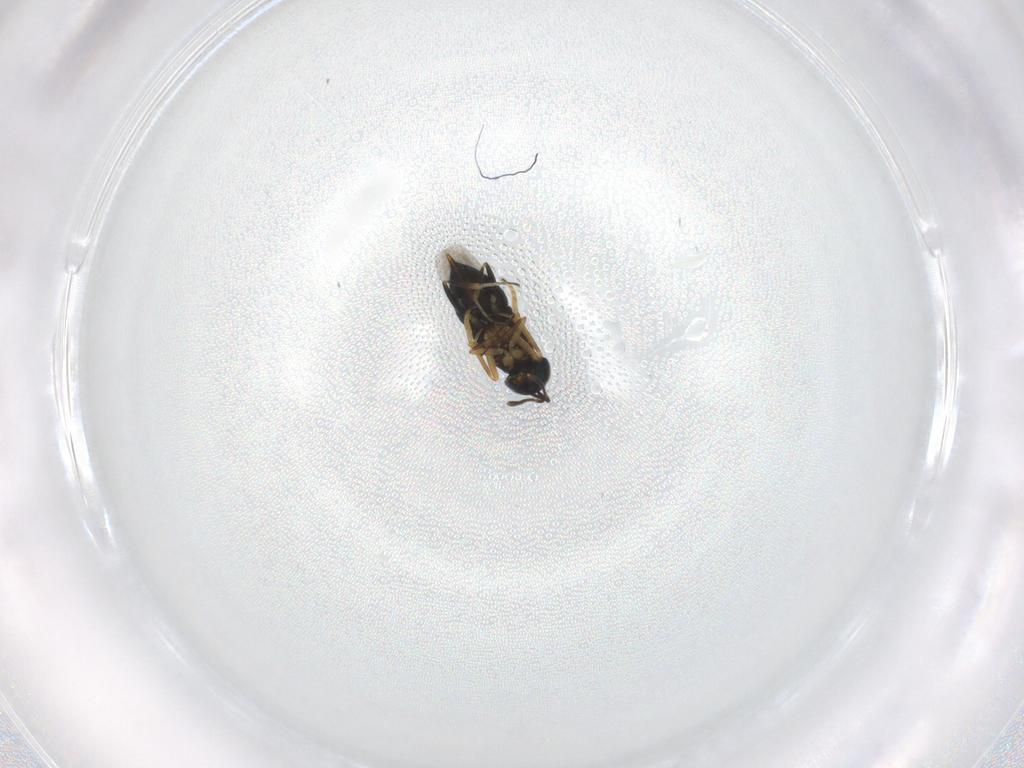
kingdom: Animalia
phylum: Arthropoda
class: Insecta
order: Hymenoptera
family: Encyrtidae
